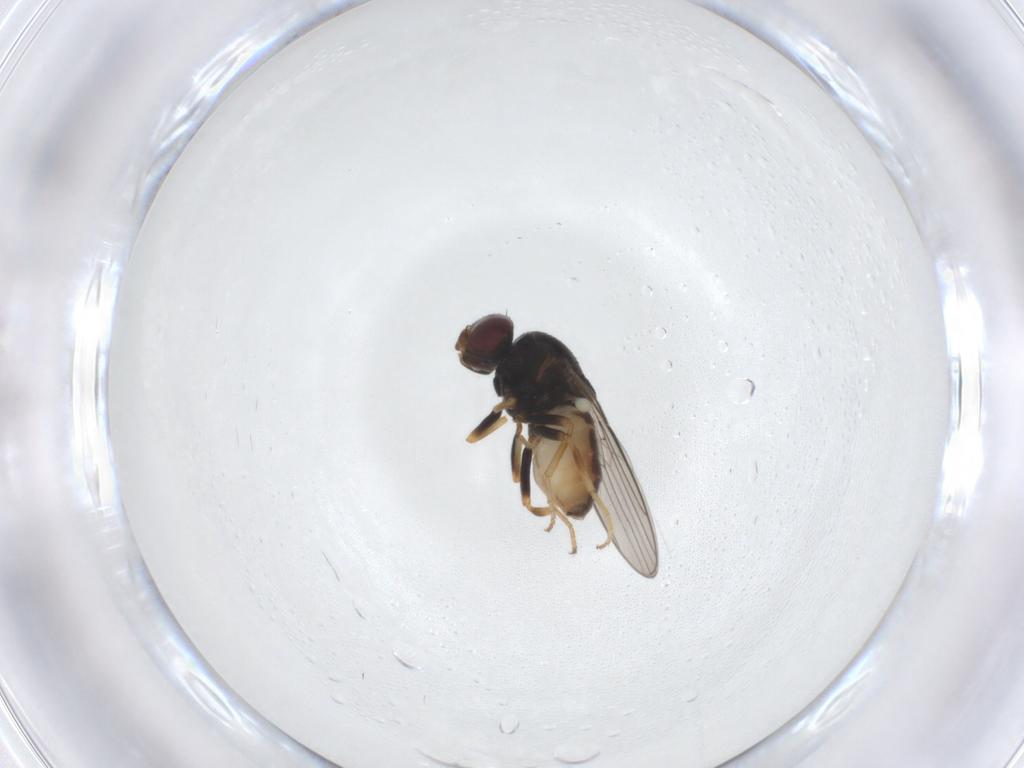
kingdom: Animalia
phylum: Arthropoda
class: Insecta
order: Diptera
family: Chloropidae
